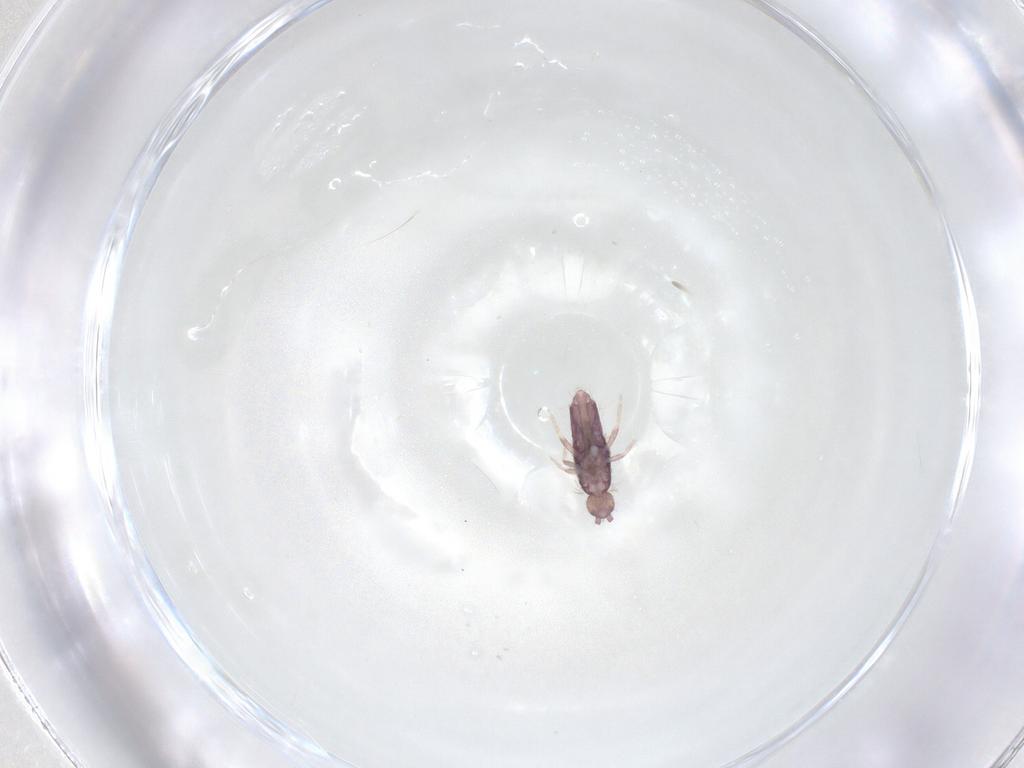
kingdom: Animalia
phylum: Arthropoda
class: Collembola
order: Entomobryomorpha
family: Entomobryidae
